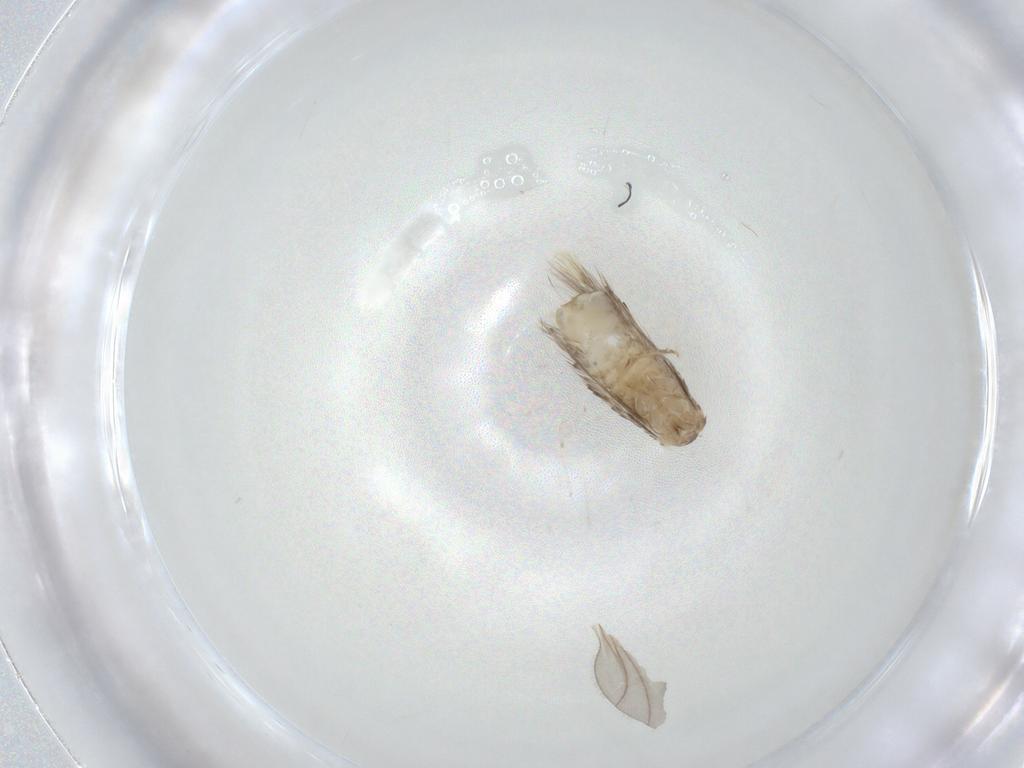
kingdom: Animalia
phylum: Arthropoda
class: Insecta
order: Lepidoptera
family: Nepticulidae
